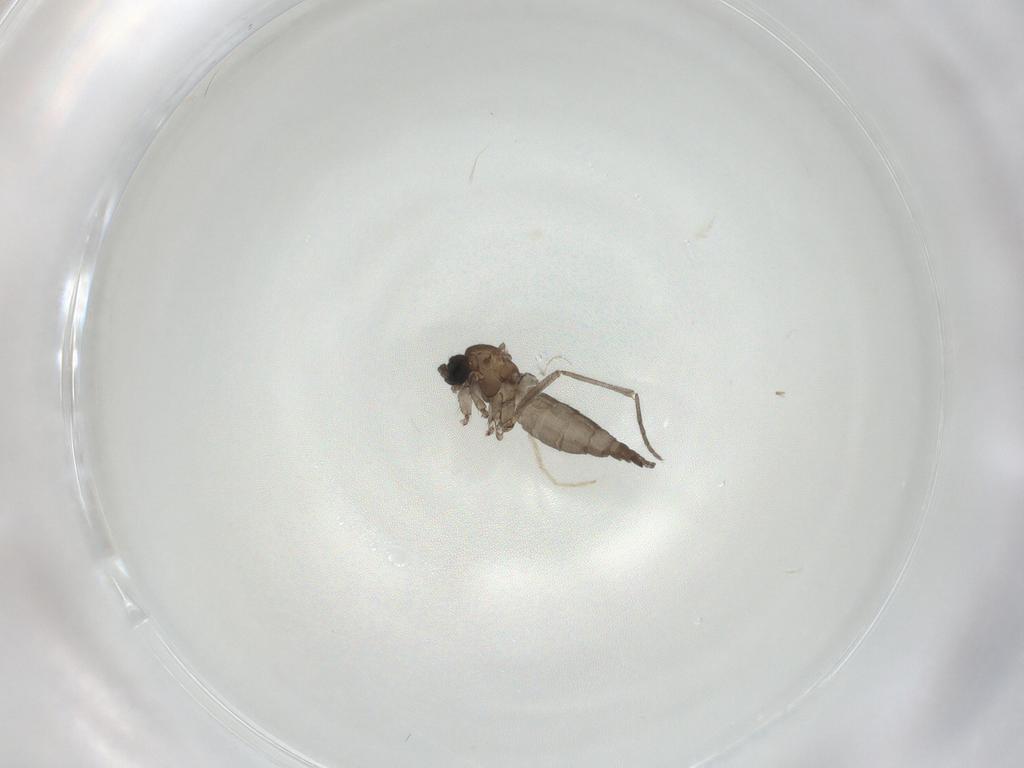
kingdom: Animalia
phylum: Arthropoda
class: Insecta
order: Diptera
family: Sciaridae
